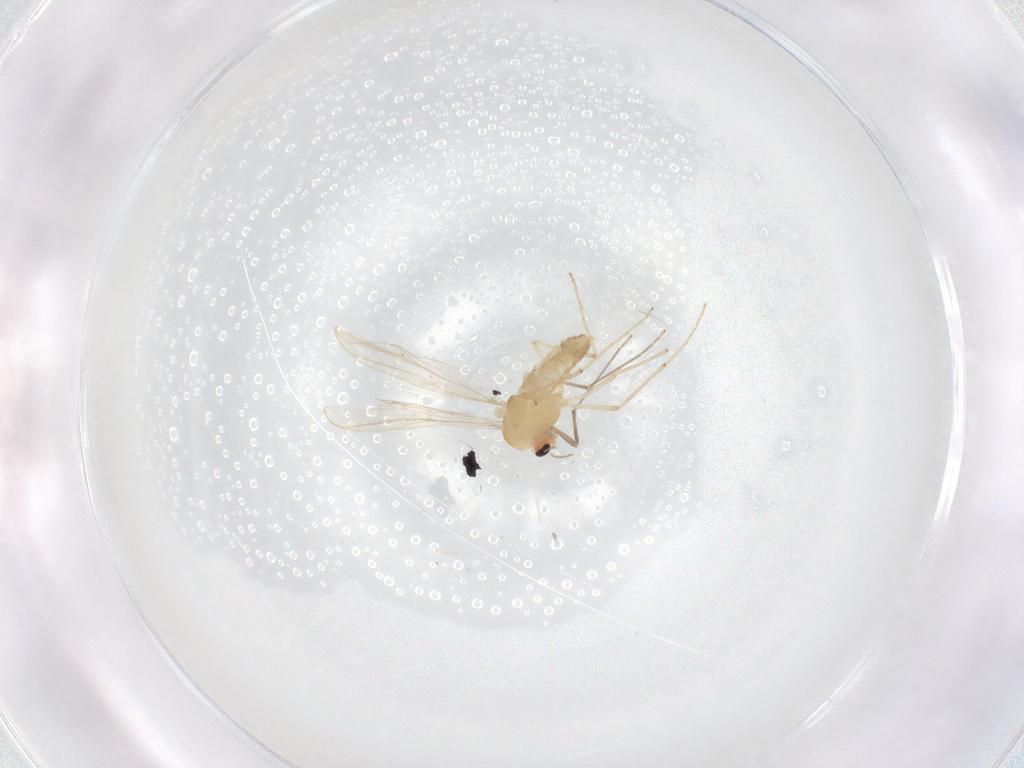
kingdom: Animalia
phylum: Arthropoda
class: Insecta
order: Diptera
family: Chironomidae
